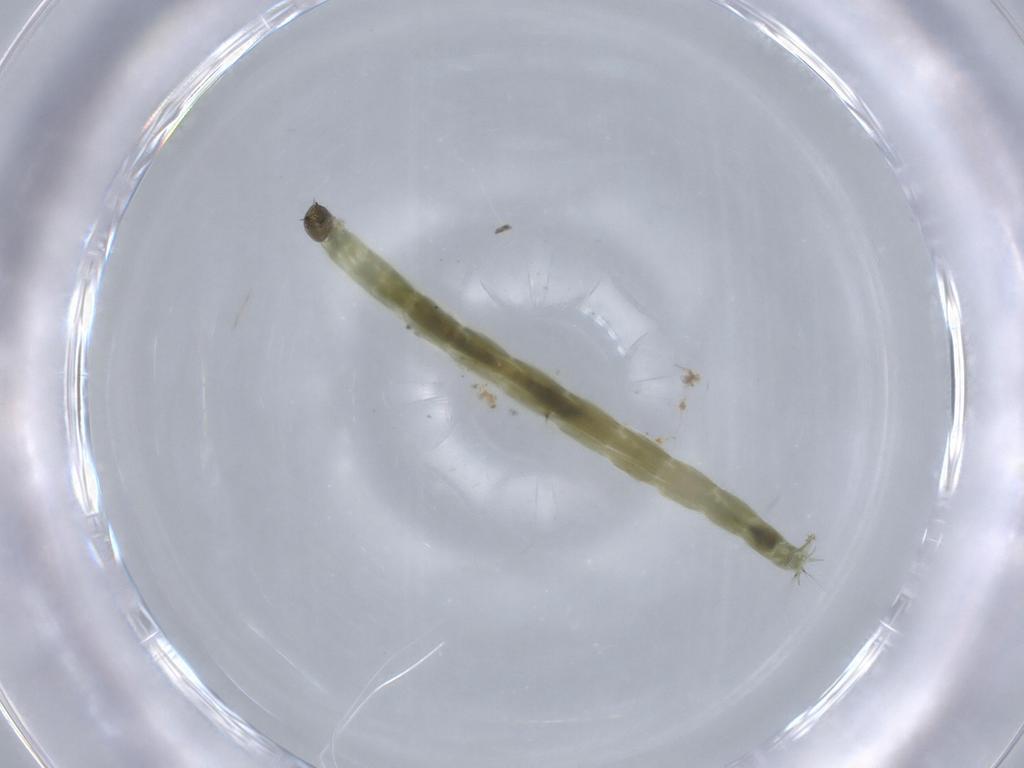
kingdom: Animalia
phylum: Arthropoda
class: Insecta
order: Diptera
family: Chironomidae
